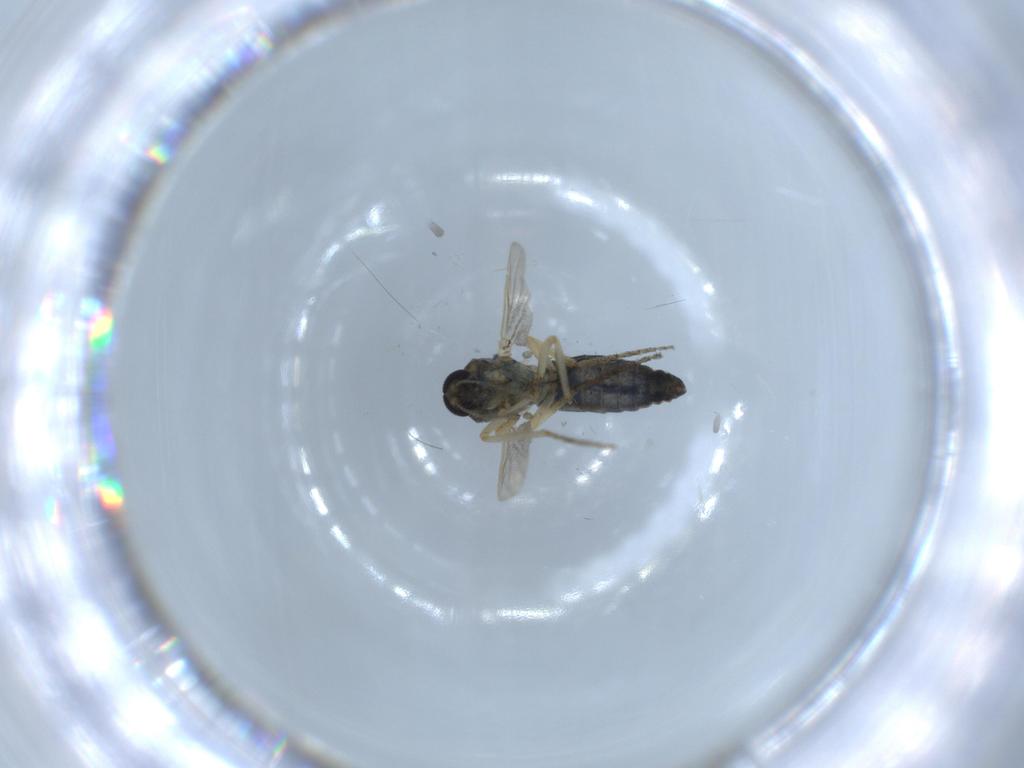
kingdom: Animalia
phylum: Arthropoda
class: Insecta
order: Diptera
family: Ceratopogonidae
